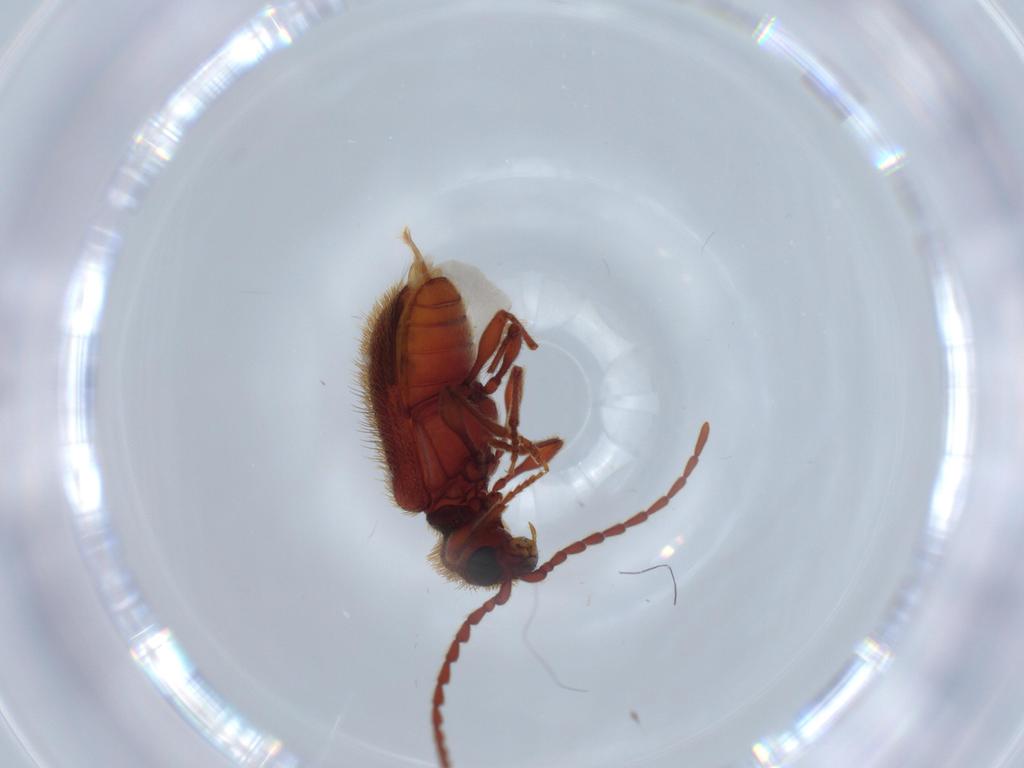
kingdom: Animalia
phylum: Arthropoda
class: Insecta
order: Coleoptera
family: Ptinidae
